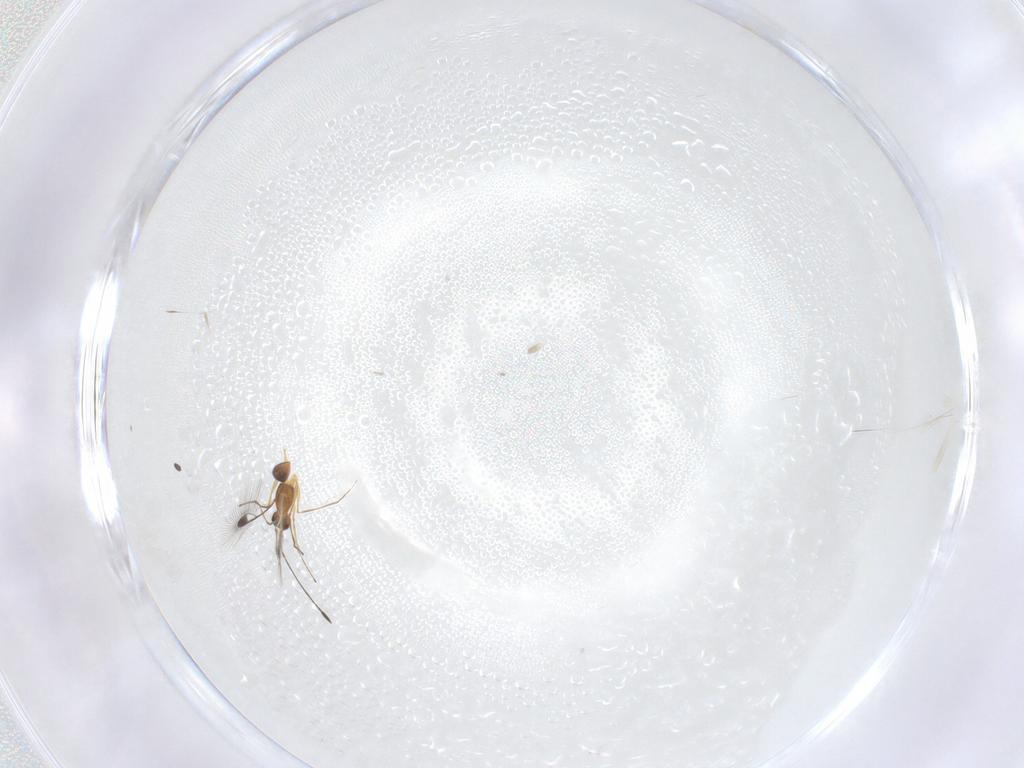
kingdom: Animalia
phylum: Arthropoda
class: Insecta
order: Hymenoptera
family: Mymaridae
